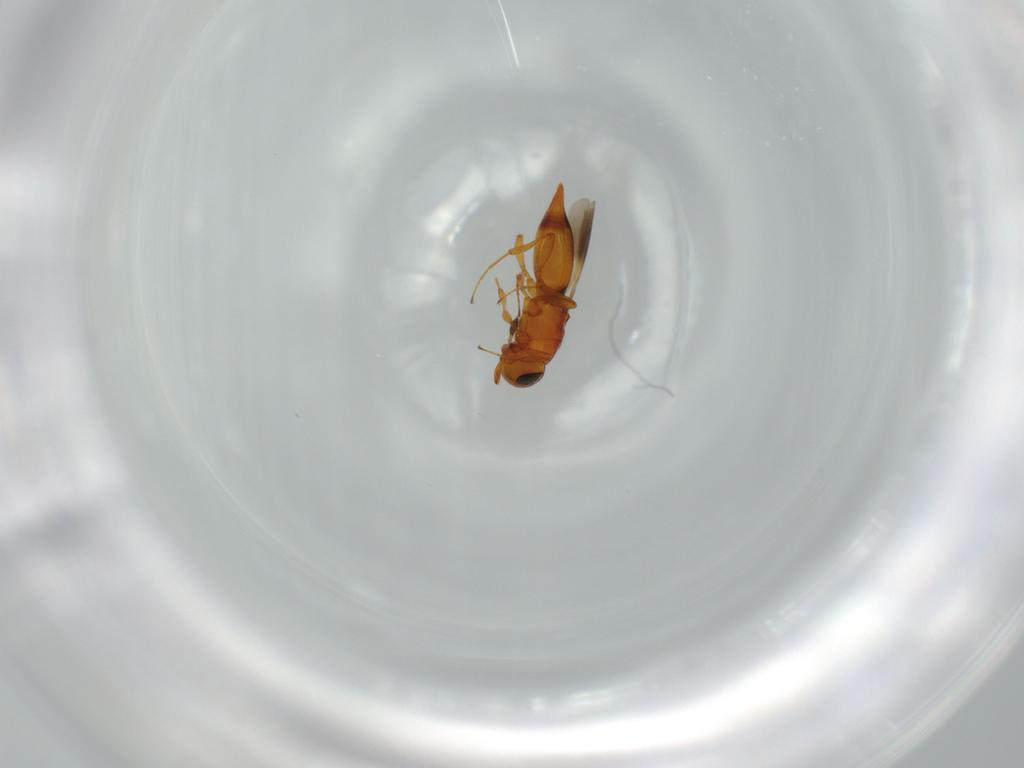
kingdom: Animalia
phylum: Arthropoda
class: Insecta
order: Hymenoptera
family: Platygastridae
